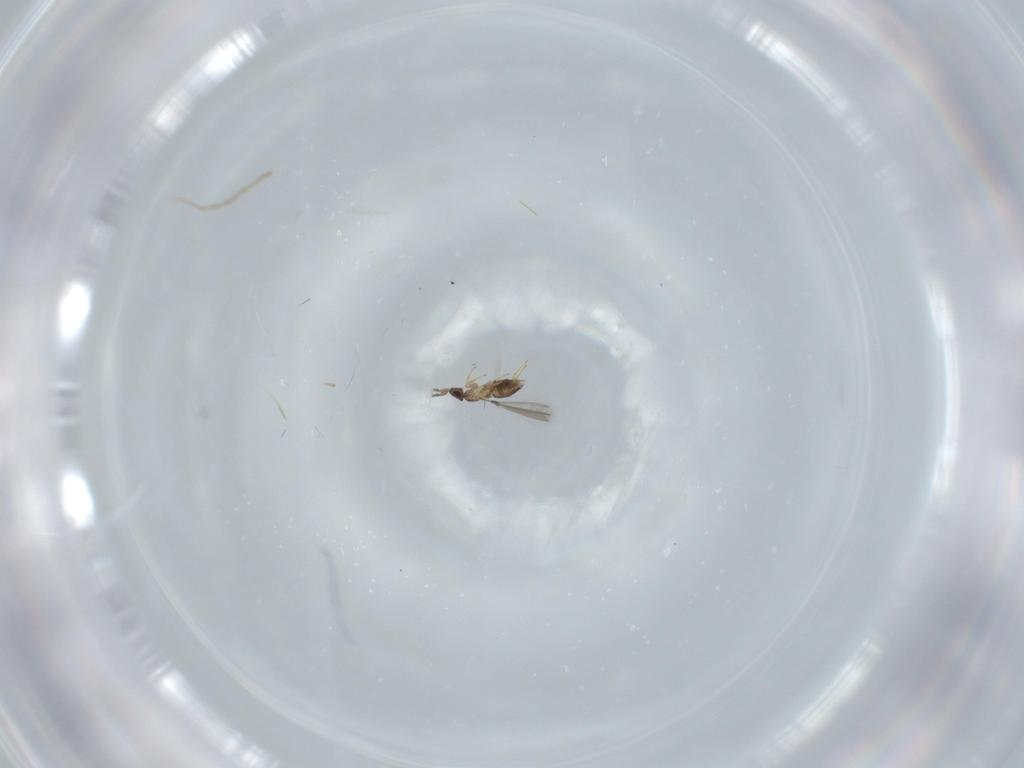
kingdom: Animalia
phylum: Arthropoda
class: Insecta
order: Hymenoptera
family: Mymaridae
